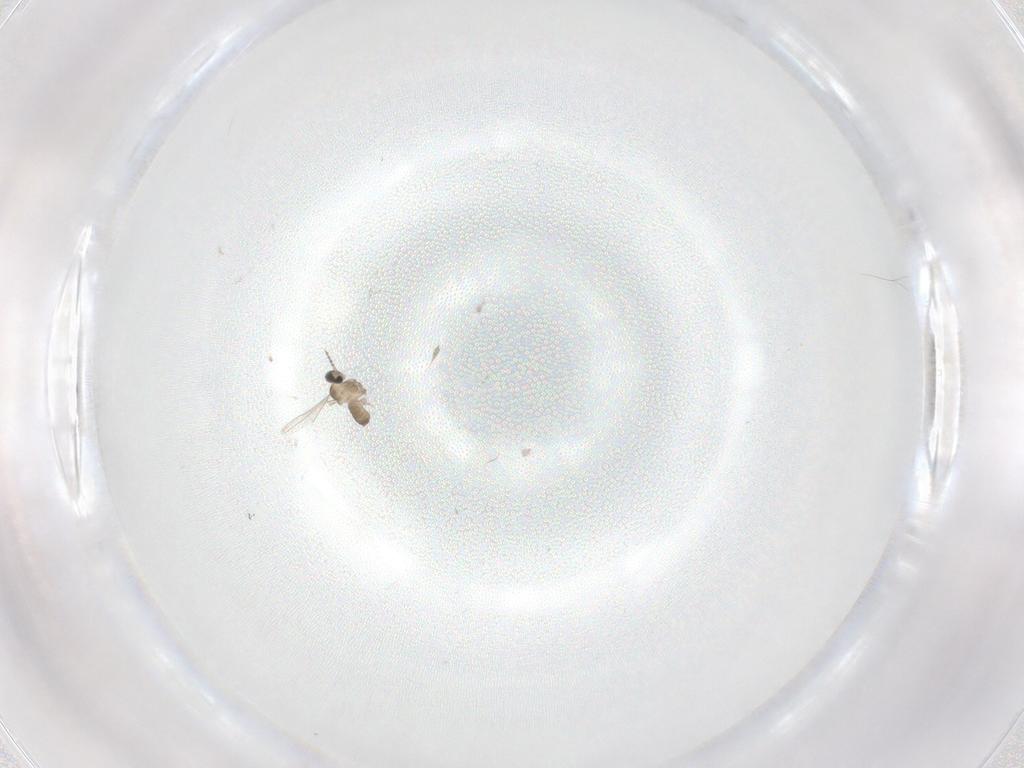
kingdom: Animalia
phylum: Arthropoda
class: Insecta
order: Diptera
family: Cecidomyiidae
